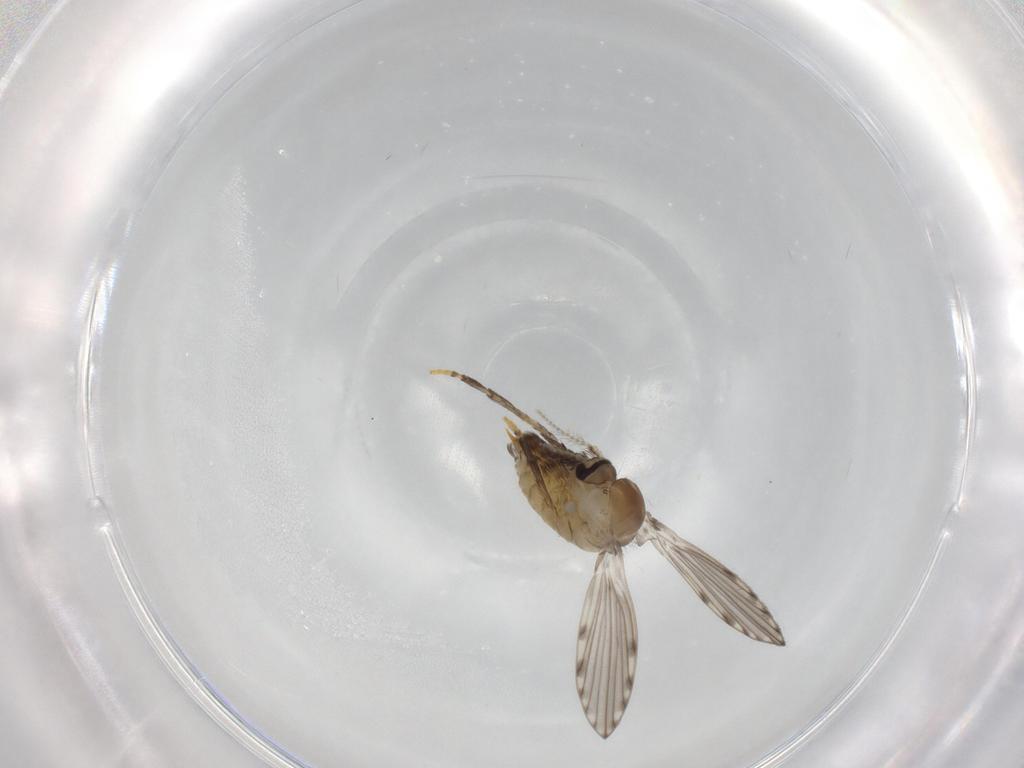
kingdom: Animalia
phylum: Arthropoda
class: Insecta
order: Diptera
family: Psychodidae
